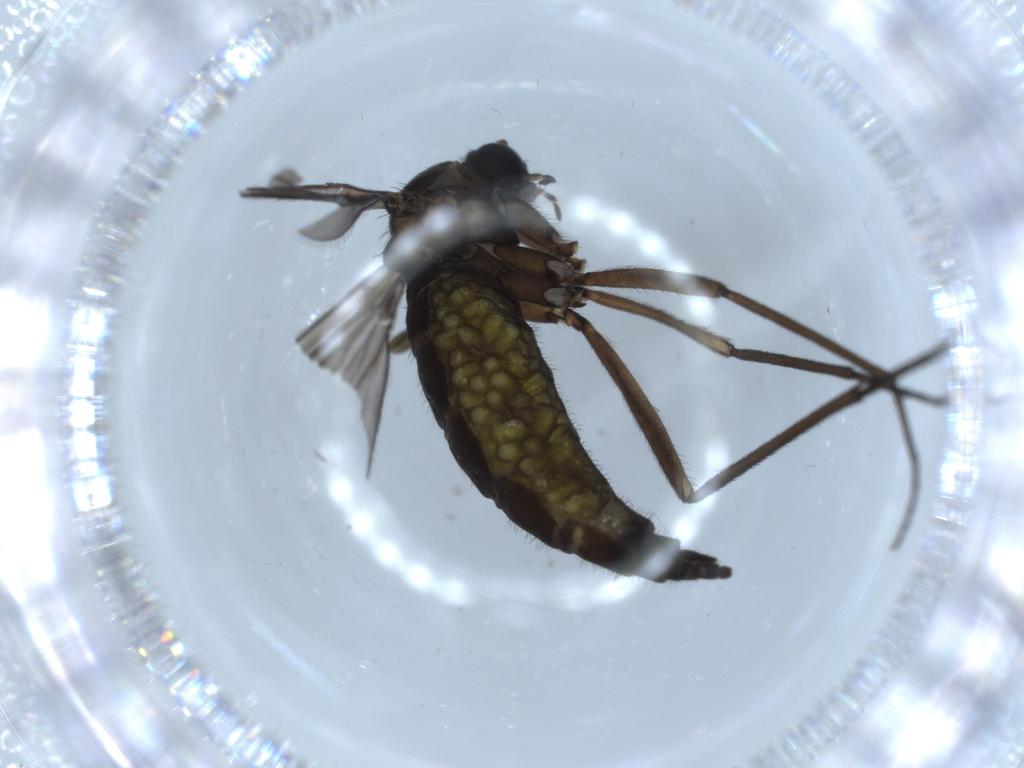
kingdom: Animalia
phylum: Arthropoda
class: Insecta
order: Diptera
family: Sciaridae
